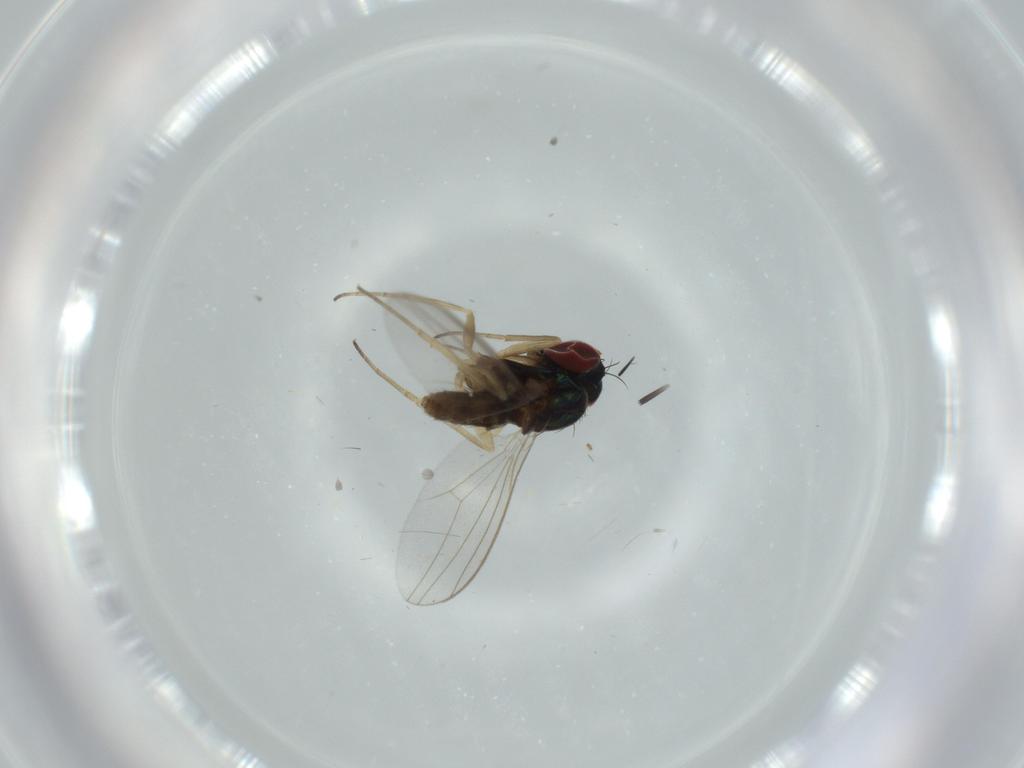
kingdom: Animalia
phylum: Arthropoda
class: Insecta
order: Diptera
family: Cecidomyiidae
